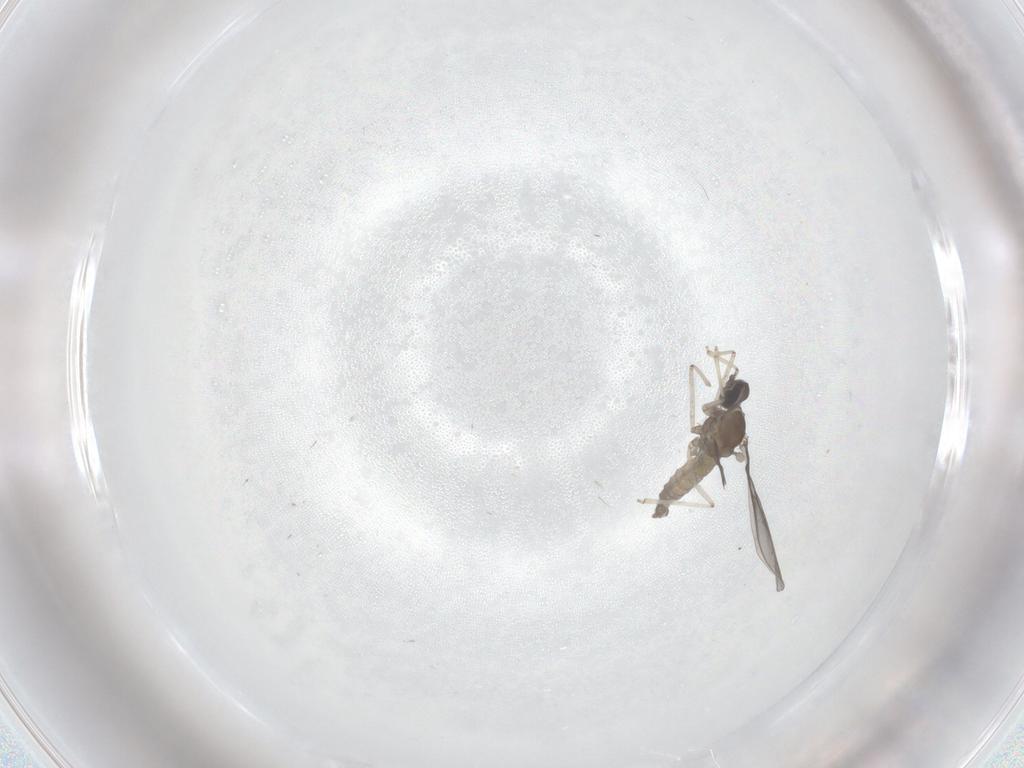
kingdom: Animalia
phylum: Arthropoda
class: Insecta
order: Diptera
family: Cecidomyiidae
